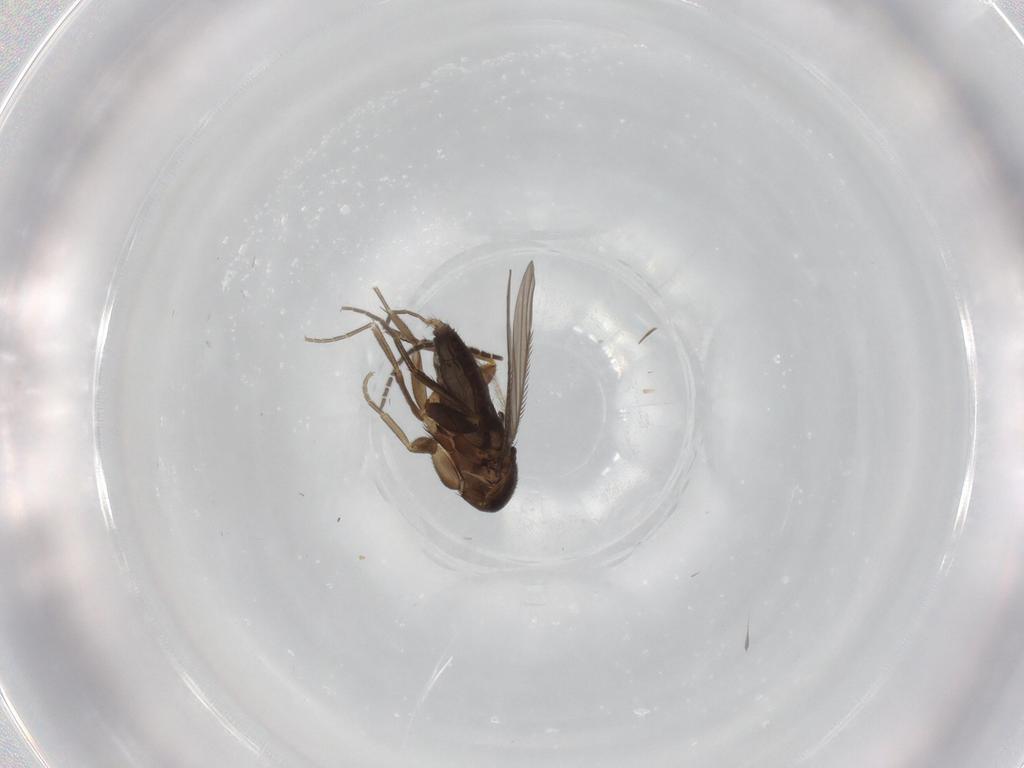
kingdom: Animalia
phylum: Arthropoda
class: Insecta
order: Diptera
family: Phoridae
